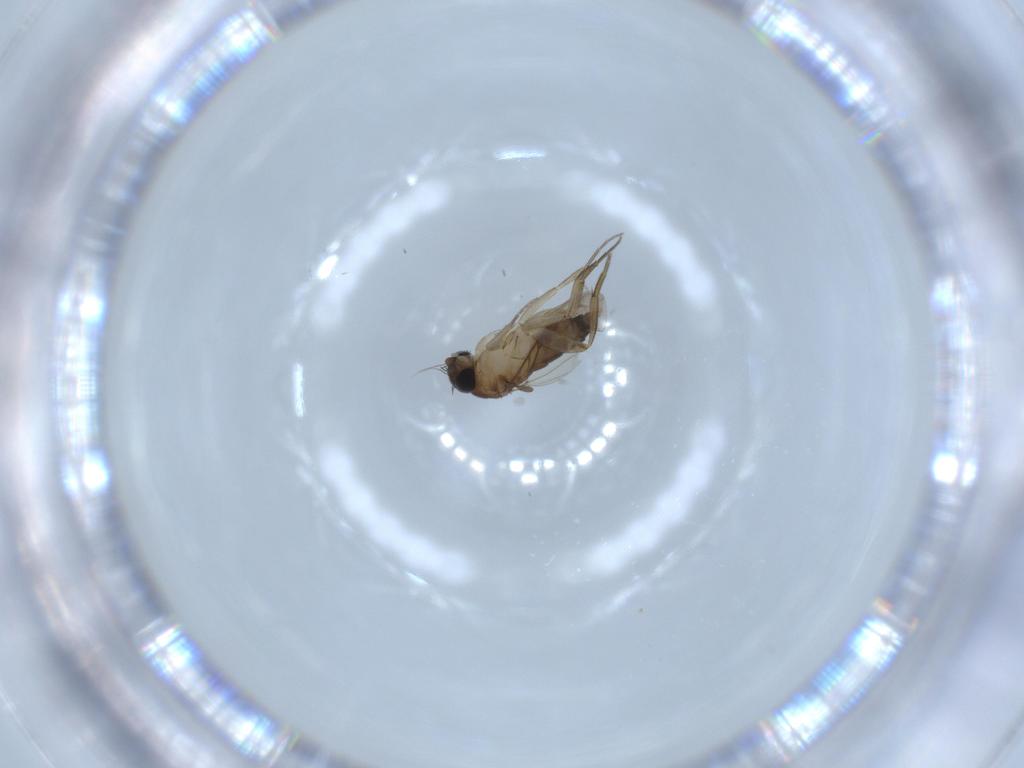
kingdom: Animalia
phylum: Arthropoda
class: Insecta
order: Diptera
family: Phoridae
